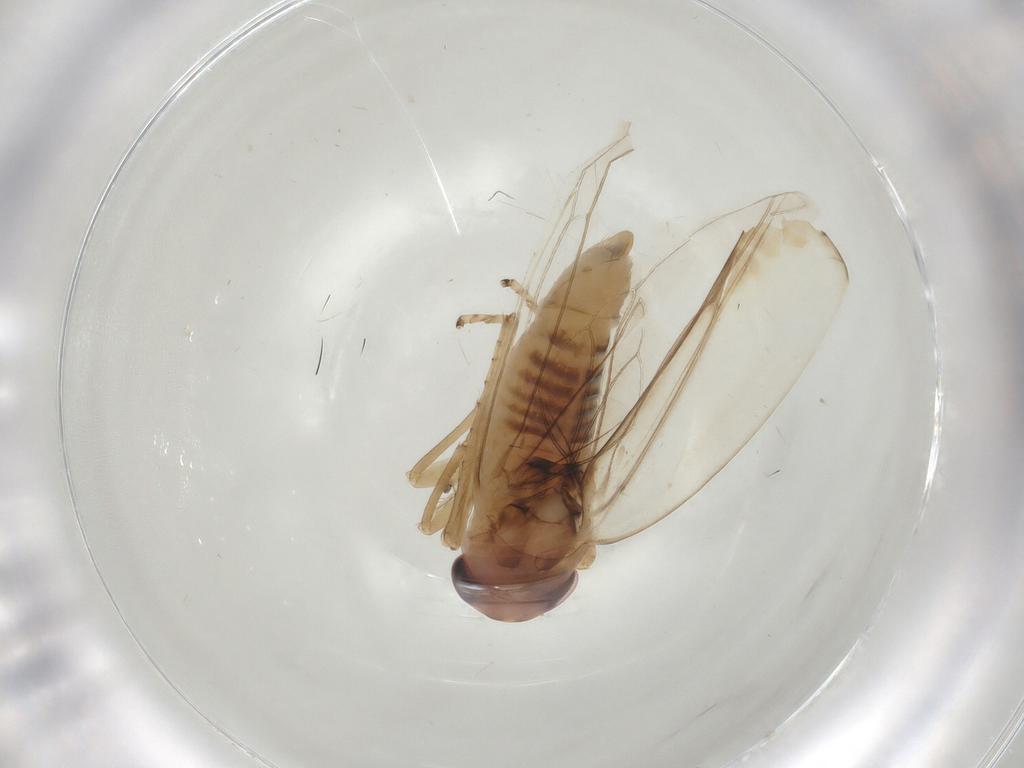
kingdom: Animalia
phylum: Arthropoda
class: Insecta
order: Hemiptera
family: Cicadellidae
